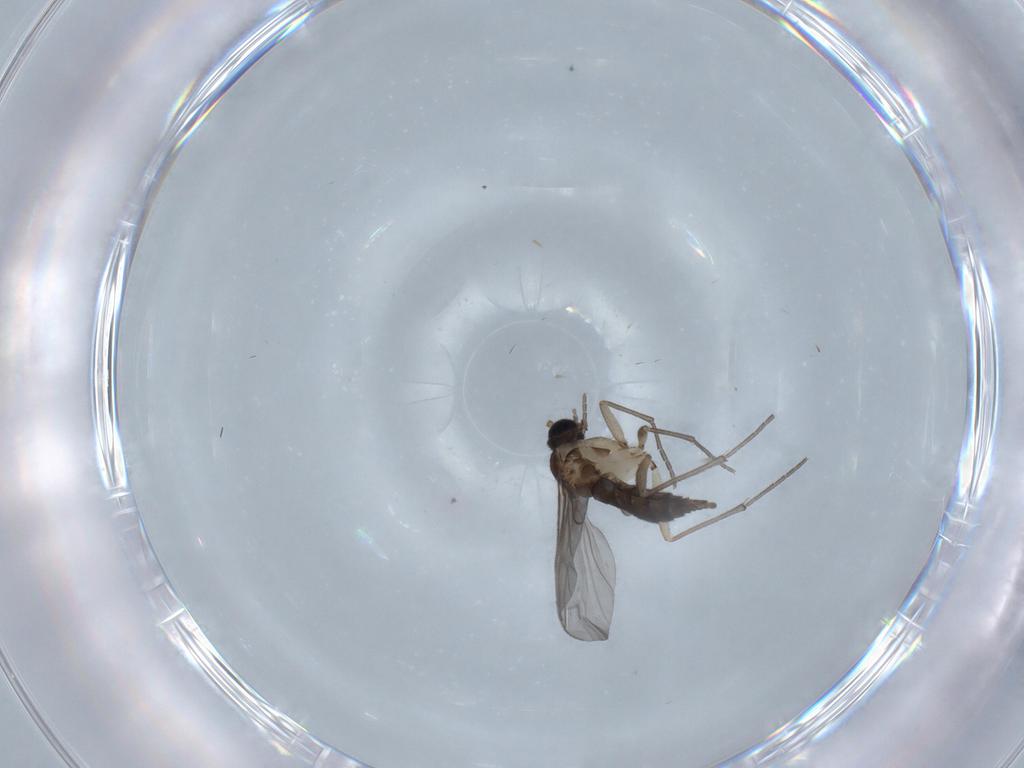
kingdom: Animalia
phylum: Arthropoda
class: Insecta
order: Diptera
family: Sciaridae
